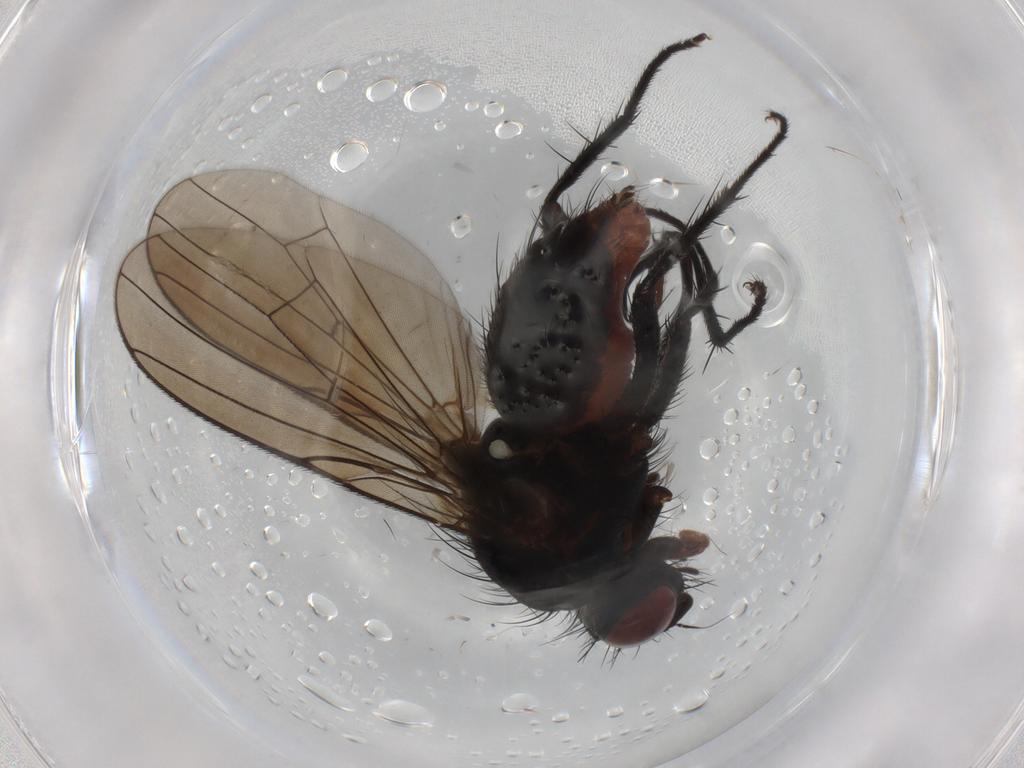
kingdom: Animalia
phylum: Arthropoda
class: Insecta
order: Diptera
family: Anthomyiidae
